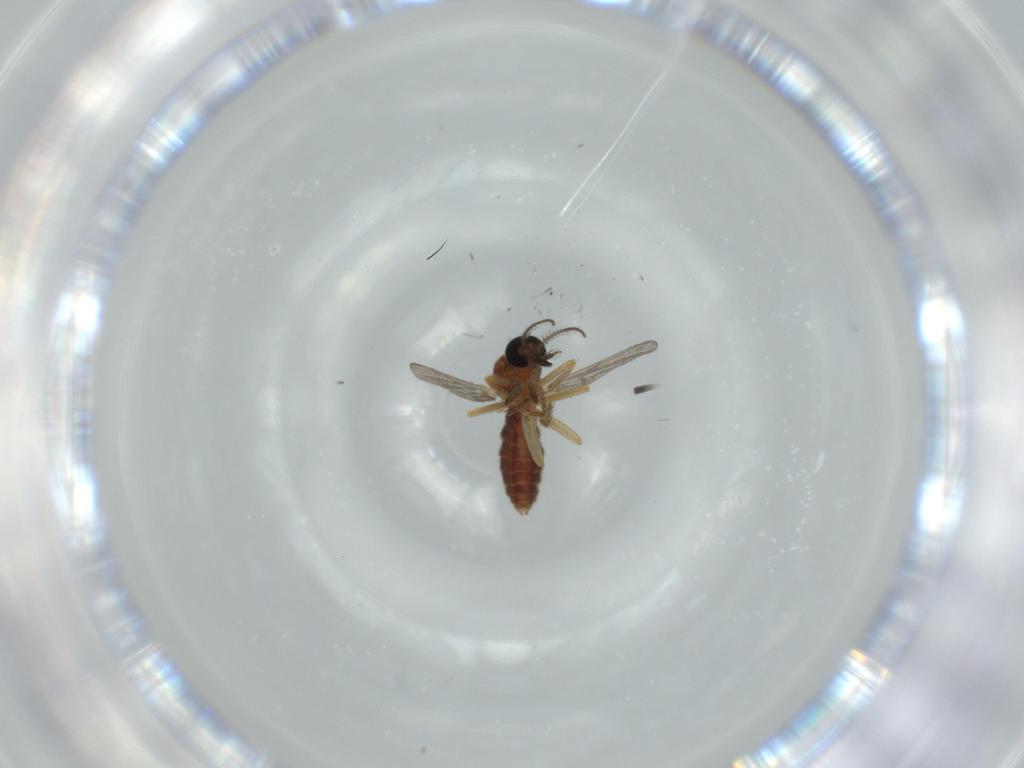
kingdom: Animalia
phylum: Arthropoda
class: Insecta
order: Diptera
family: Ceratopogonidae
